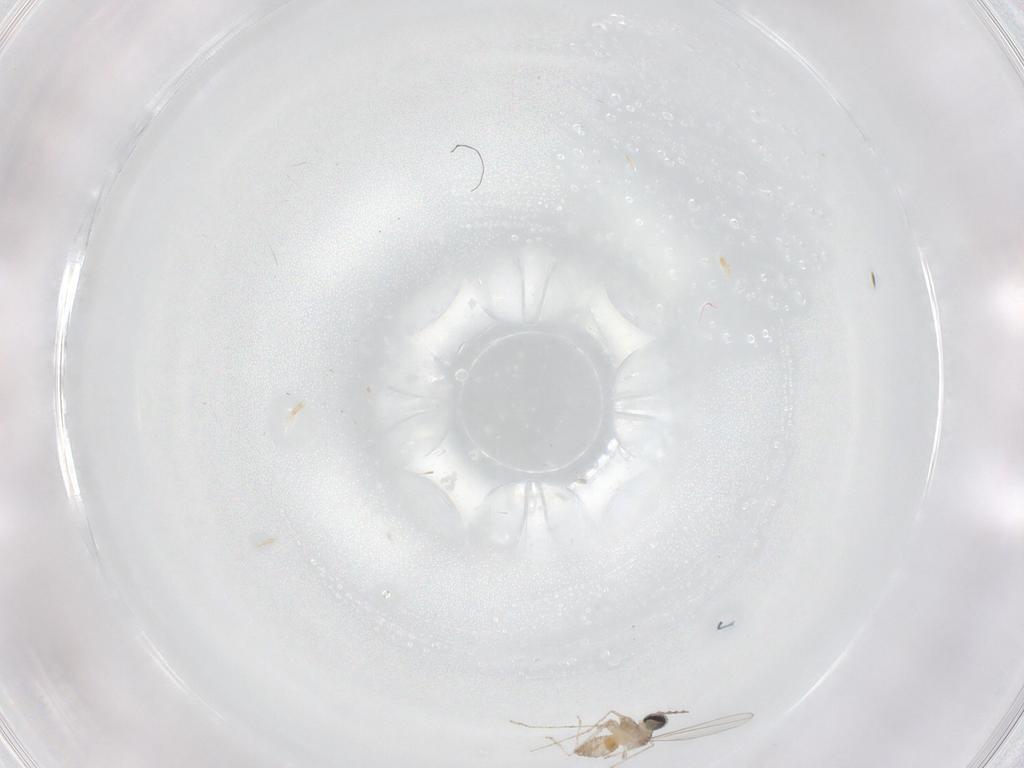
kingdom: Animalia
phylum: Arthropoda
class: Insecta
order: Diptera
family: Cecidomyiidae
